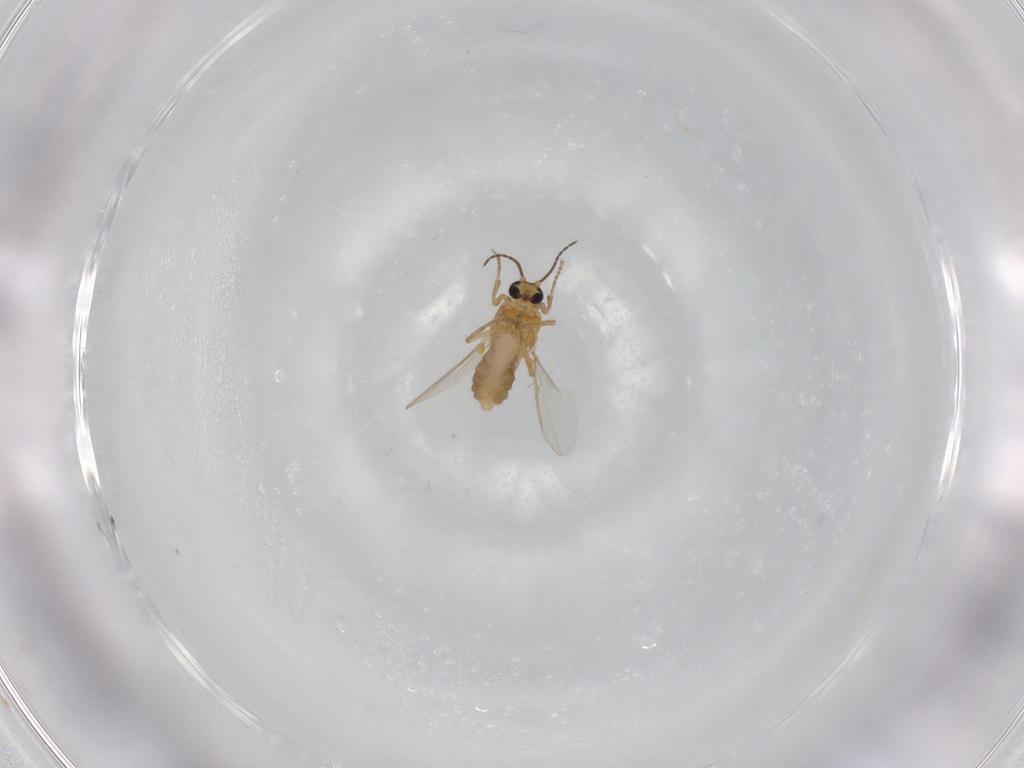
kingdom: Animalia
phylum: Arthropoda
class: Insecta
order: Diptera
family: Ceratopogonidae
